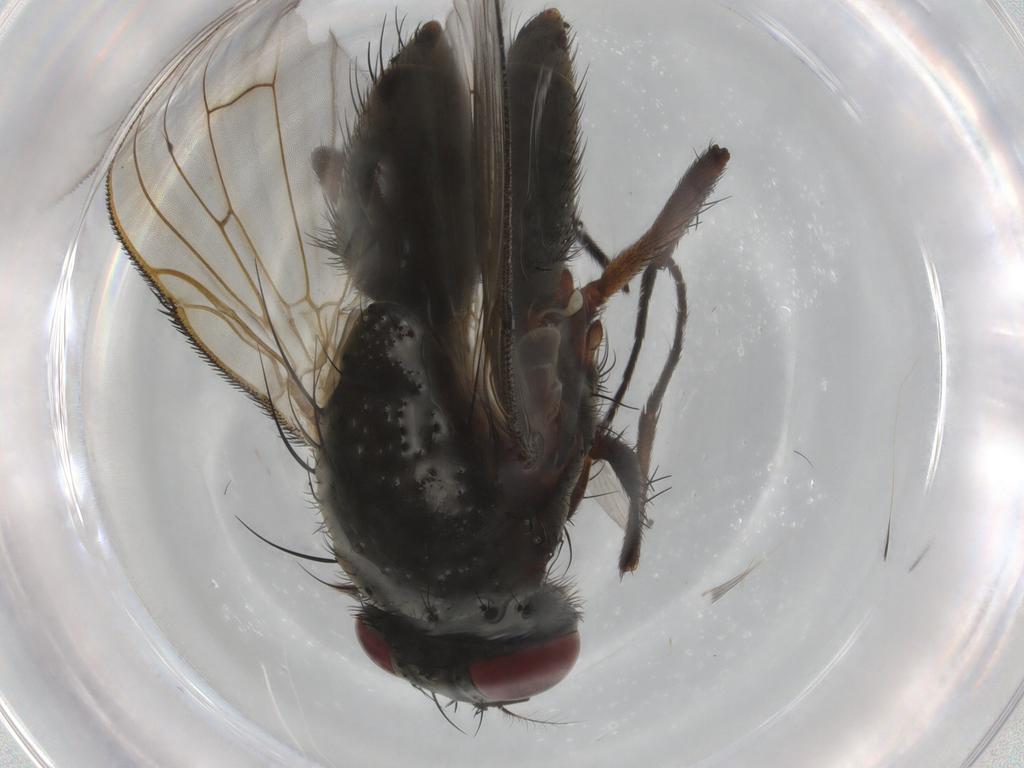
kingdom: Animalia
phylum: Arthropoda
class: Insecta
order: Diptera
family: Muscidae
